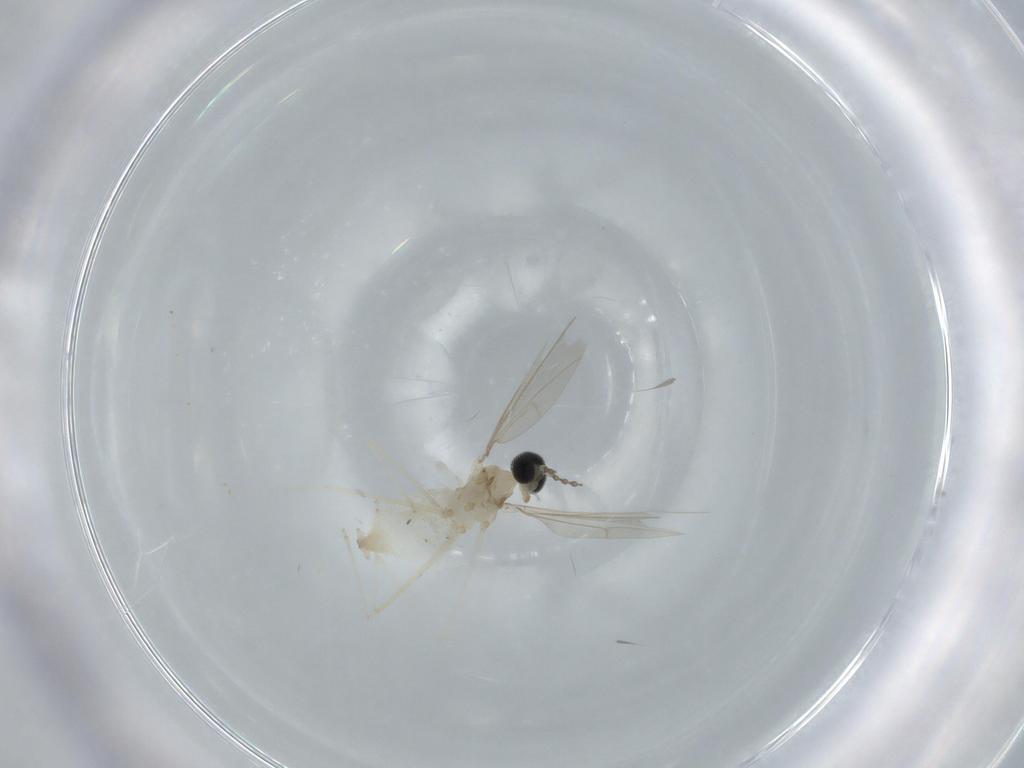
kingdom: Animalia
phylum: Arthropoda
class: Insecta
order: Diptera
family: Cecidomyiidae
